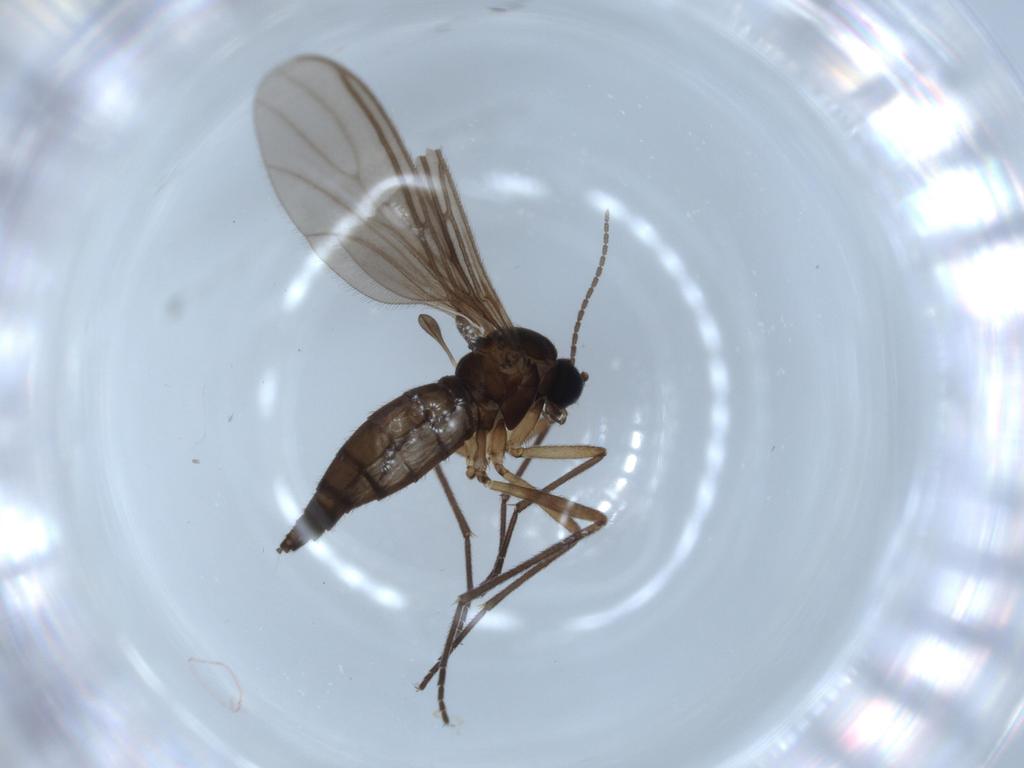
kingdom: Animalia
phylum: Arthropoda
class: Insecta
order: Diptera
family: Sciaridae
